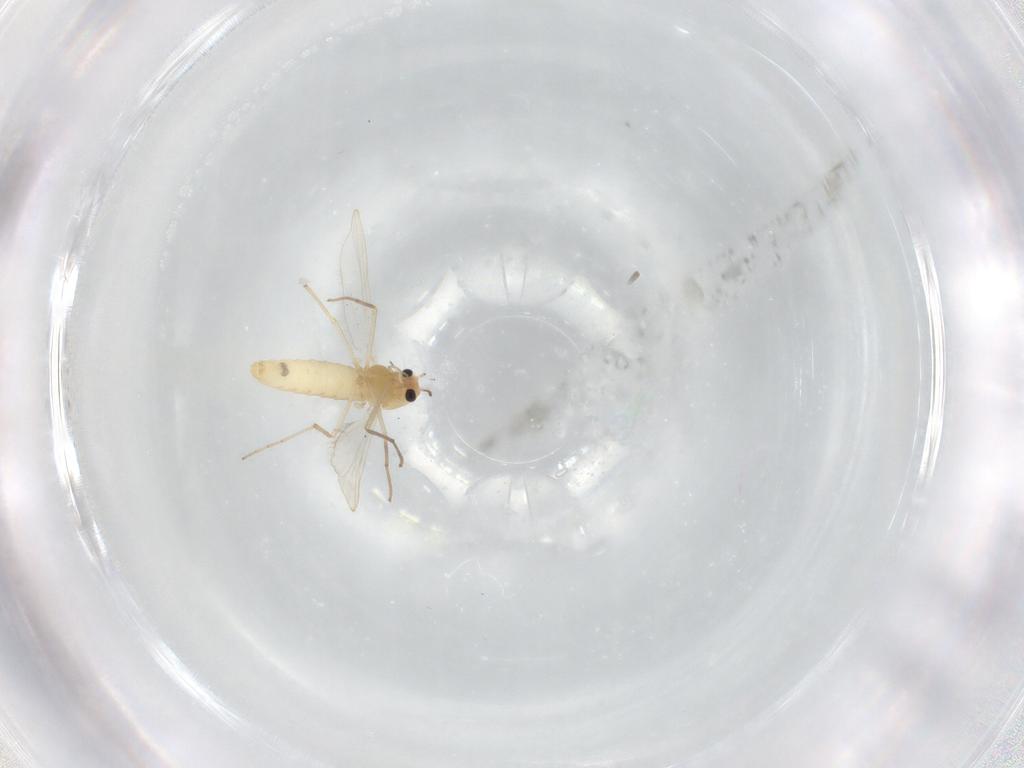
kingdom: Animalia
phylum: Arthropoda
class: Insecta
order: Diptera
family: Chironomidae
